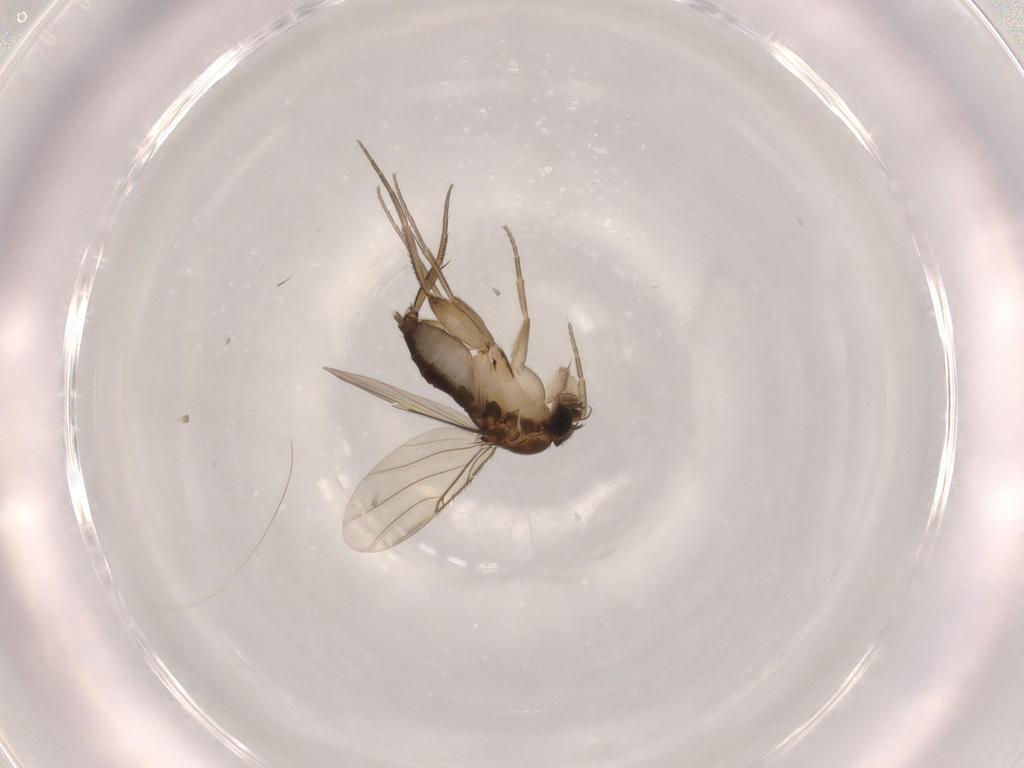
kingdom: Animalia
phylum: Arthropoda
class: Insecta
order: Diptera
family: Phoridae
